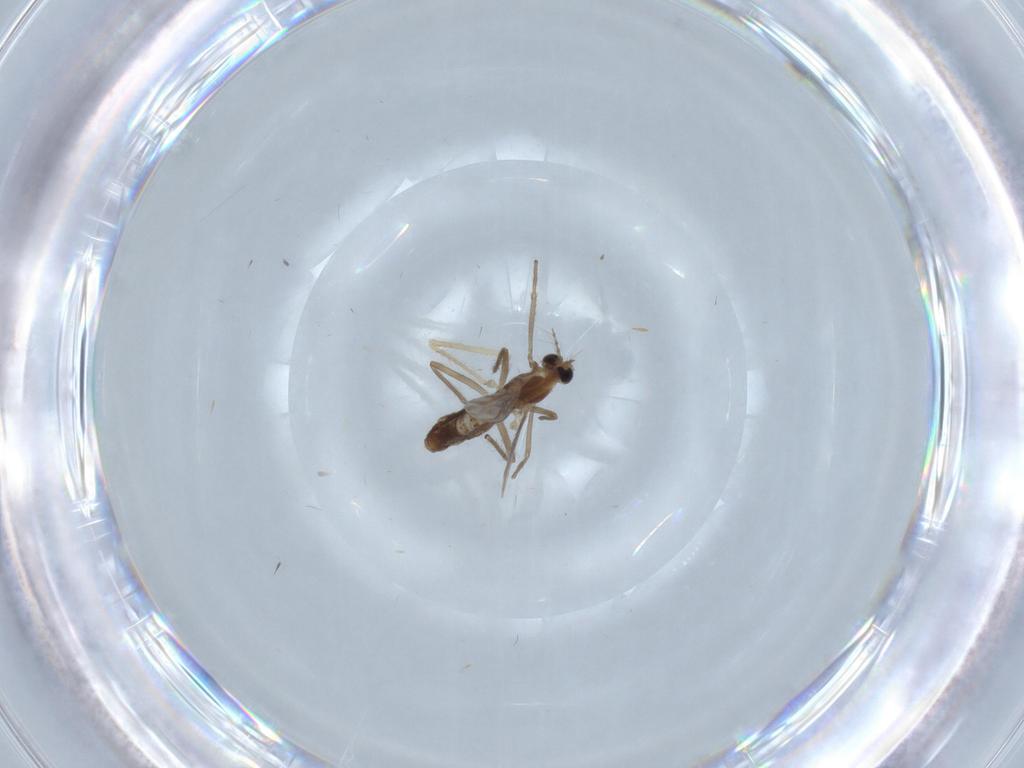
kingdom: Animalia
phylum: Arthropoda
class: Insecta
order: Diptera
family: Chironomidae
